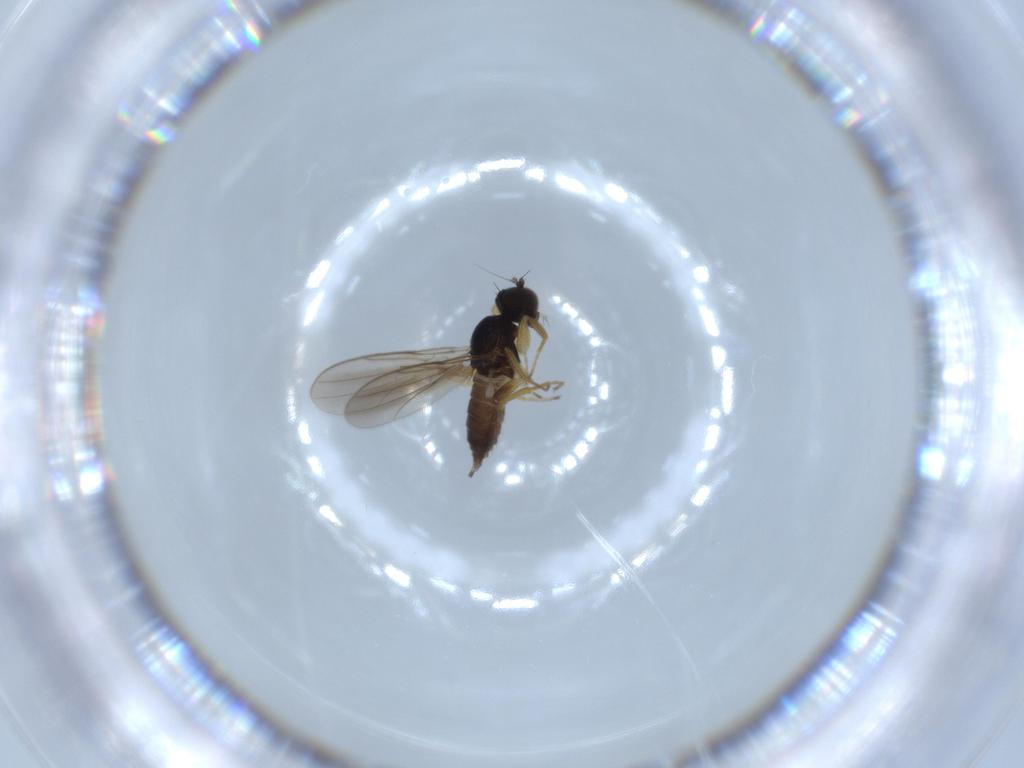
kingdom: Animalia
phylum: Arthropoda
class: Insecta
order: Diptera
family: Hybotidae
